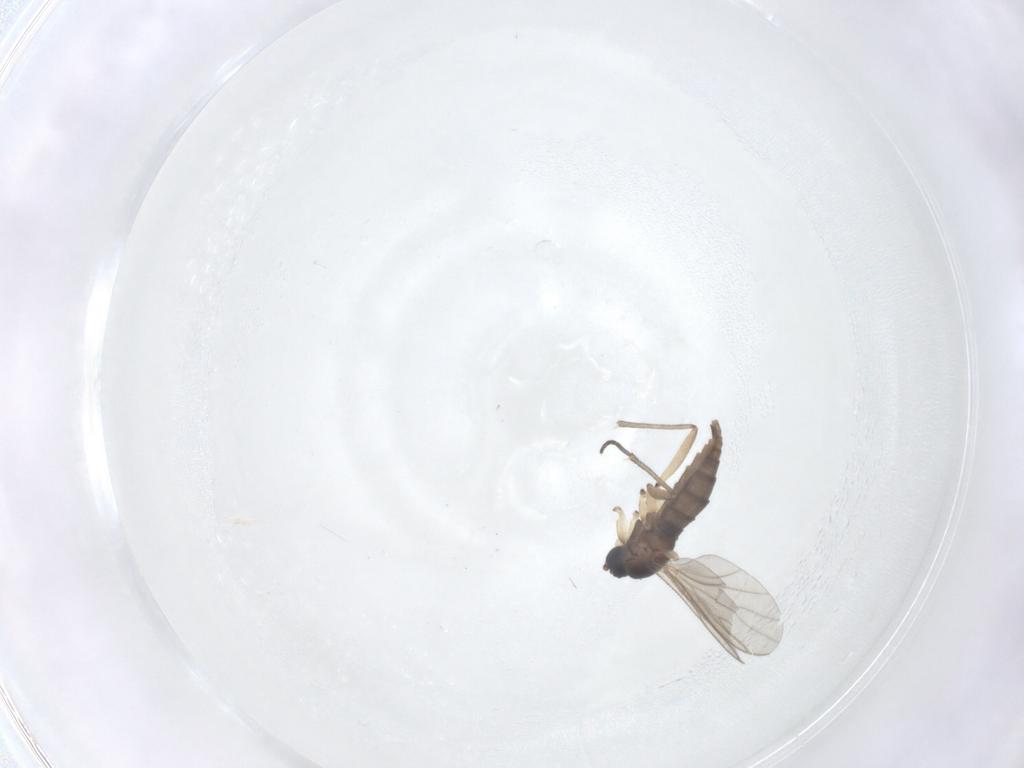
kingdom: Animalia
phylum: Arthropoda
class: Insecta
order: Diptera
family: Sciaridae
